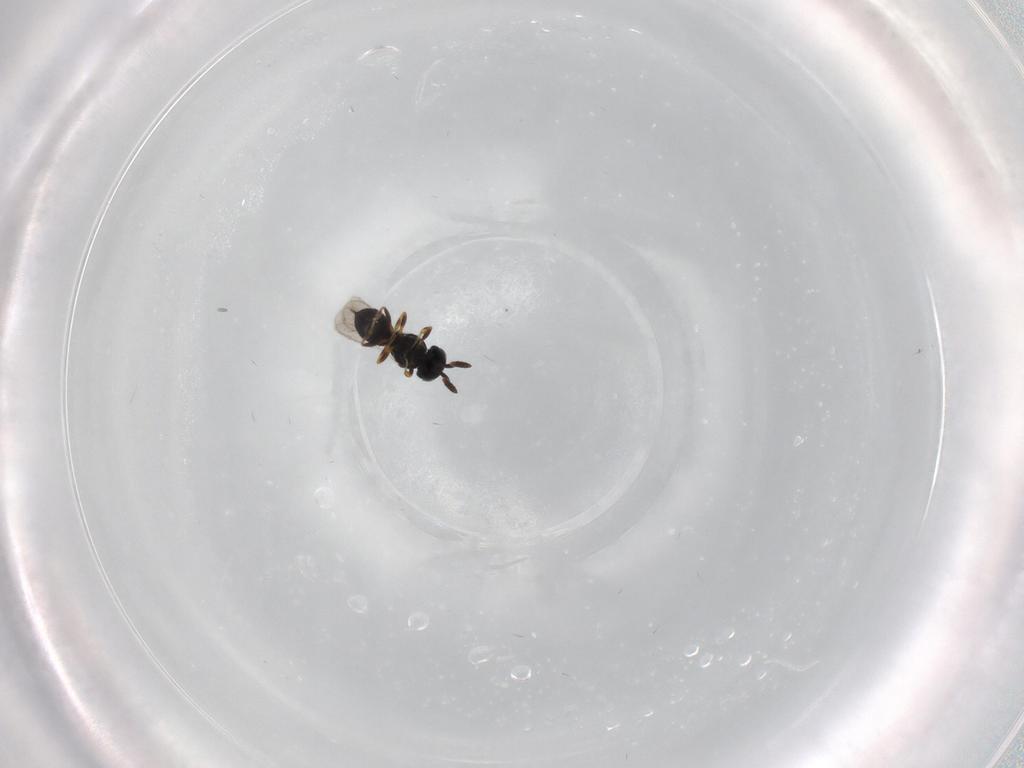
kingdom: Animalia
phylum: Arthropoda
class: Insecta
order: Hymenoptera
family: Scelionidae
